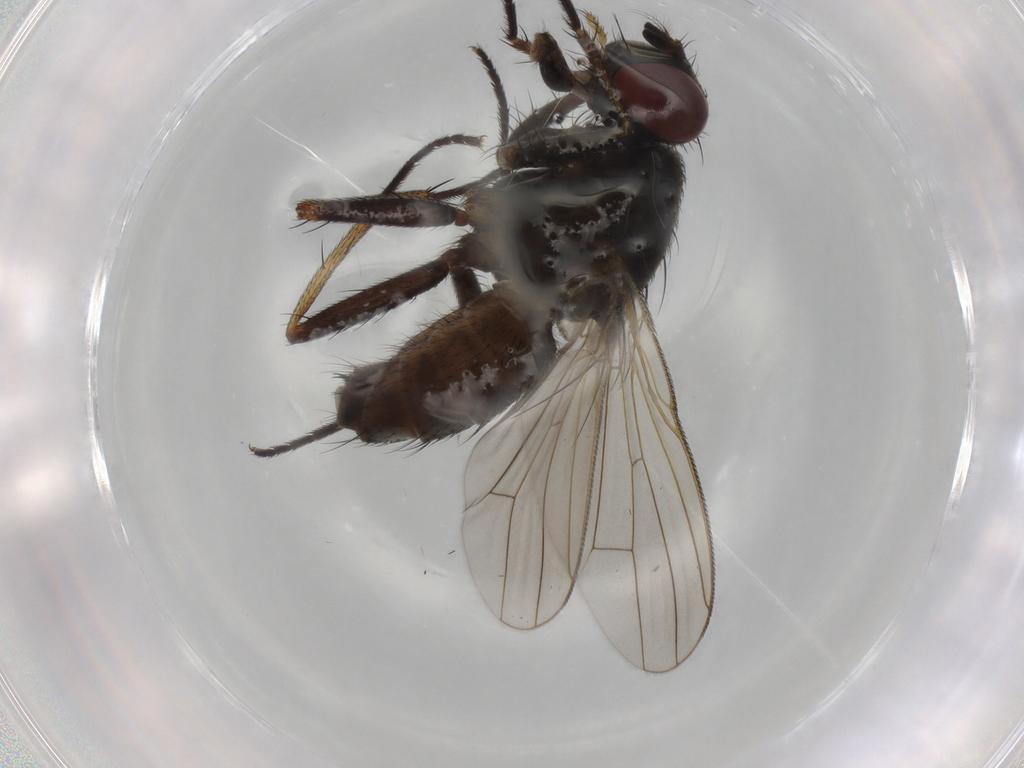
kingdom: Animalia
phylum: Arthropoda
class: Insecta
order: Diptera
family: Muscidae
